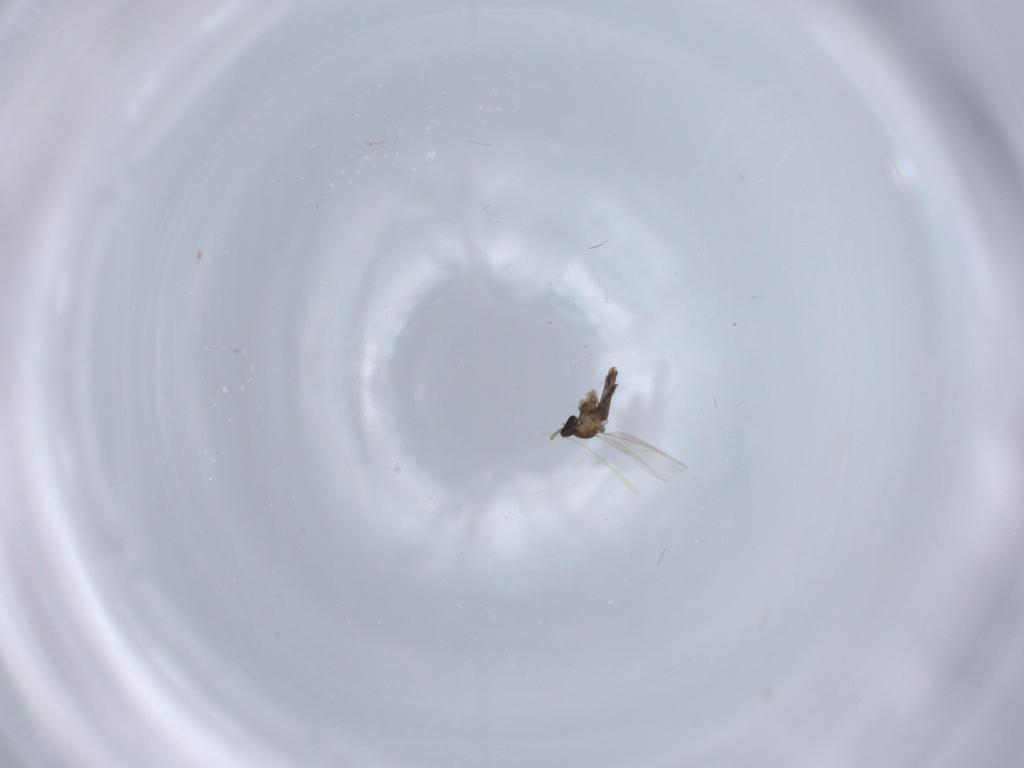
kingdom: Animalia
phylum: Arthropoda
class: Insecta
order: Diptera
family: Cecidomyiidae
